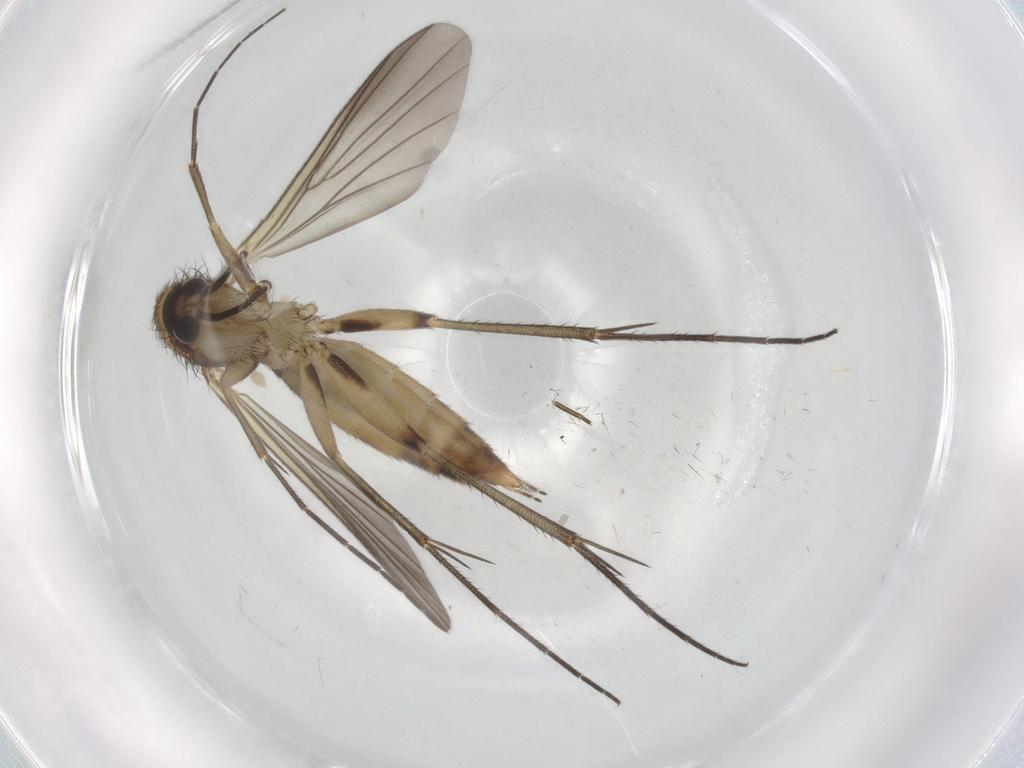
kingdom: Animalia
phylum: Arthropoda
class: Insecta
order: Diptera
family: Mycetophilidae
